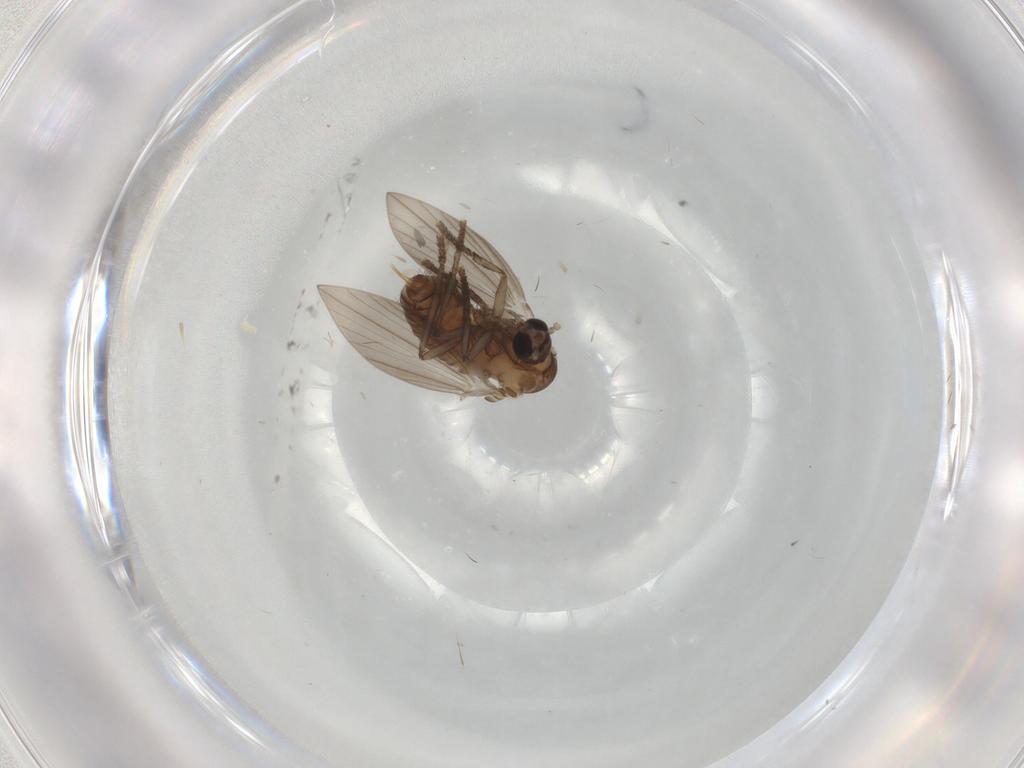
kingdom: Animalia
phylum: Arthropoda
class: Insecta
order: Diptera
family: Psychodidae
